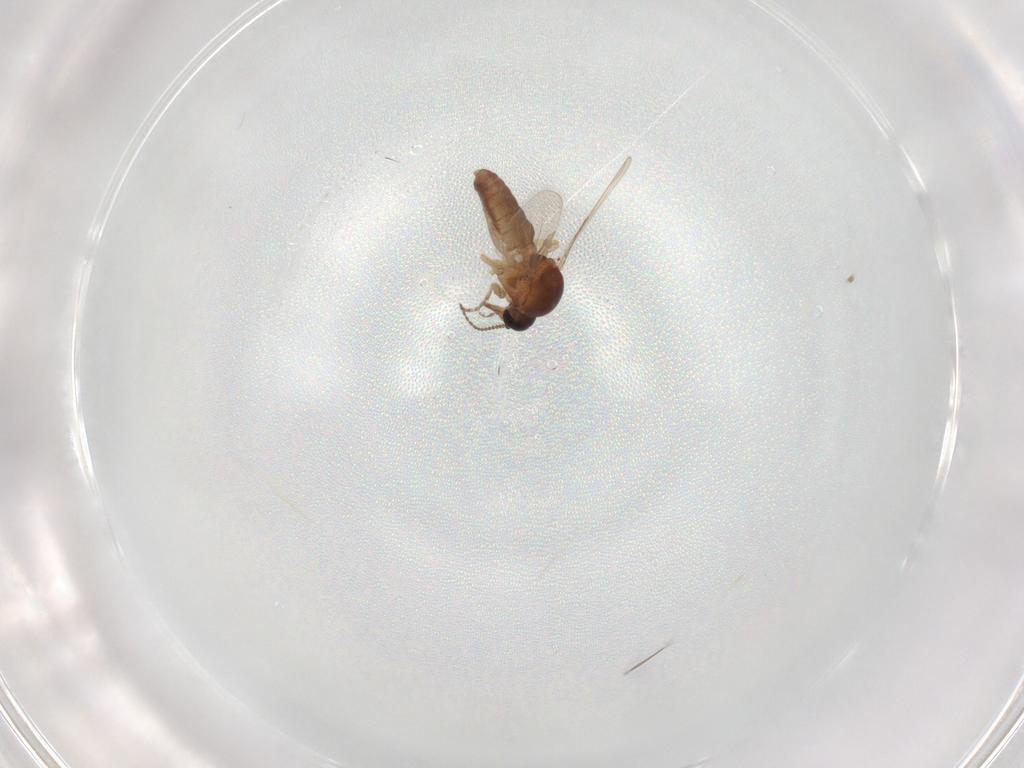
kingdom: Animalia
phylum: Arthropoda
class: Insecta
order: Diptera
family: Ceratopogonidae
